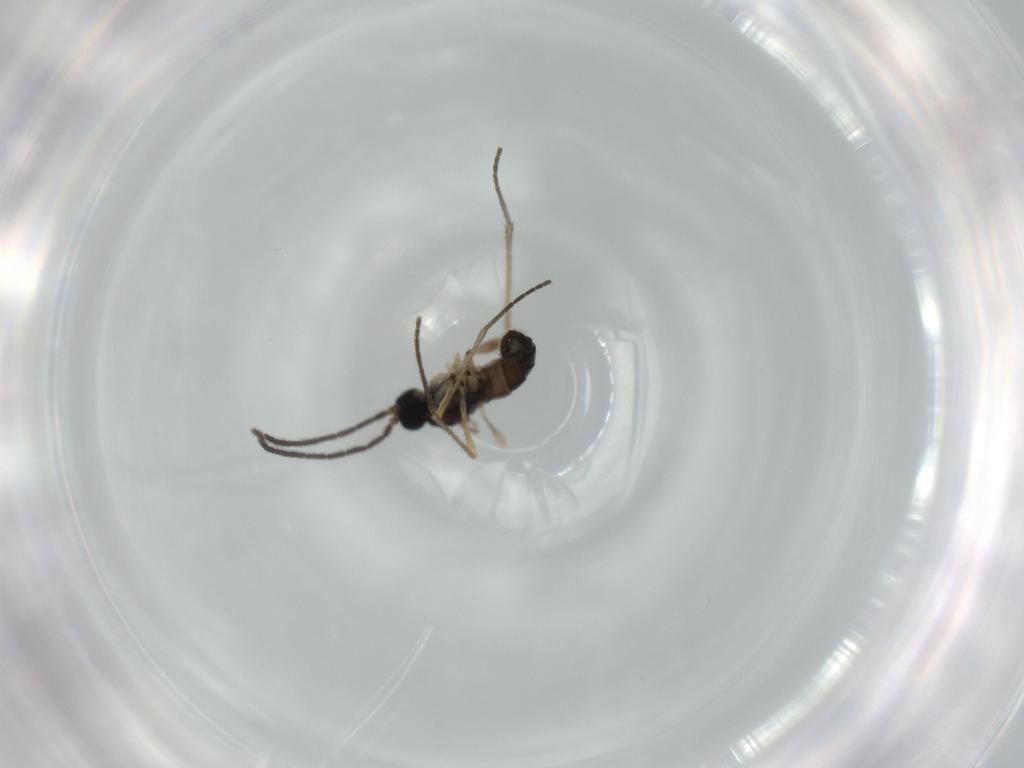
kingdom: Animalia
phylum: Arthropoda
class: Insecta
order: Diptera
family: Sciaridae
